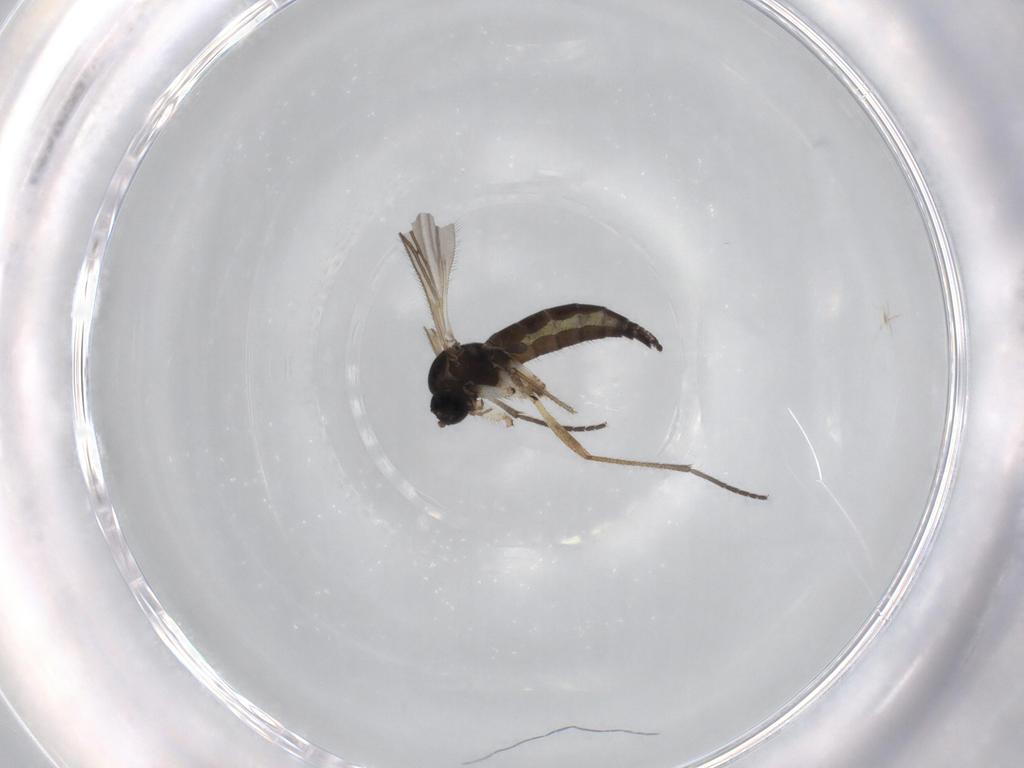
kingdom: Animalia
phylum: Arthropoda
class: Insecta
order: Diptera
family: Sciaridae
